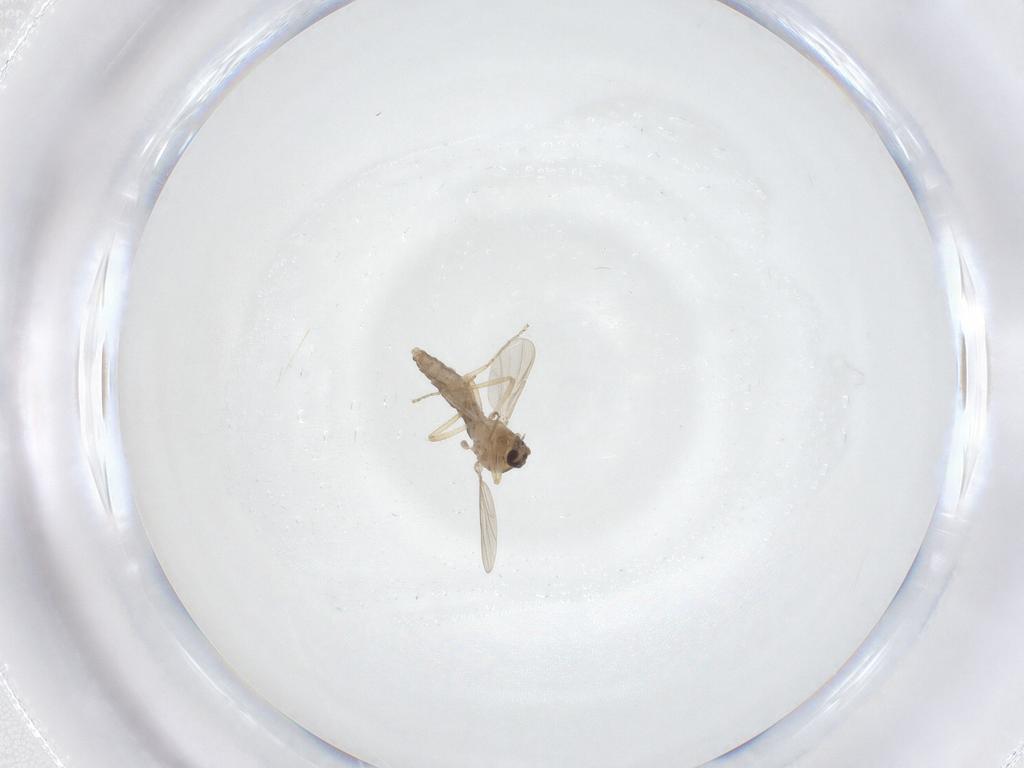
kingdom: Animalia
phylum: Arthropoda
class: Insecta
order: Diptera
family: Ceratopogonidae
